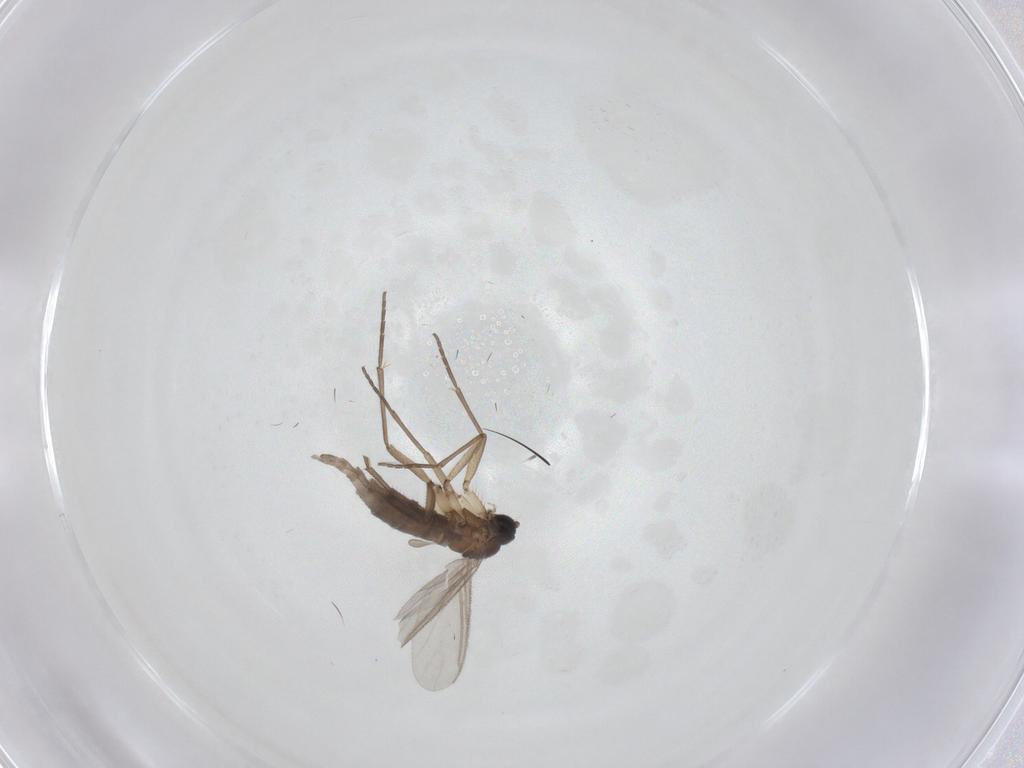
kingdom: Animalia
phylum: Arthropoda
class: Insecta
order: Diptera
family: Sciaridae
